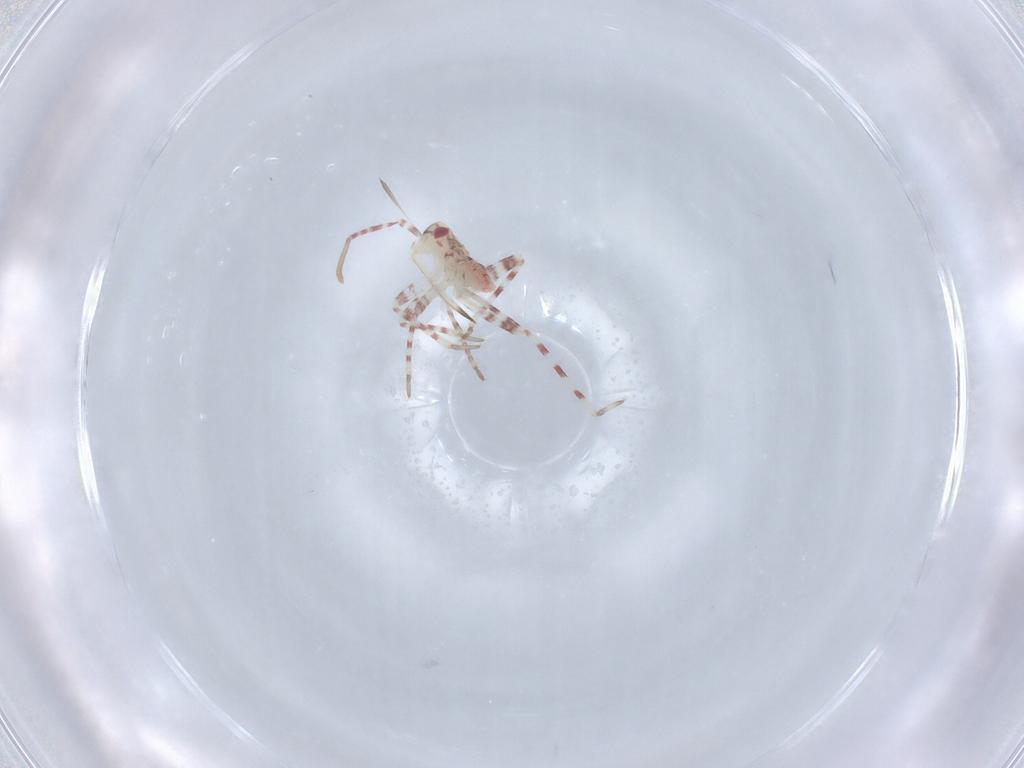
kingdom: Animalia
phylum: Arthropoda
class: Insecta
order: Hemiptera
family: Miridae
